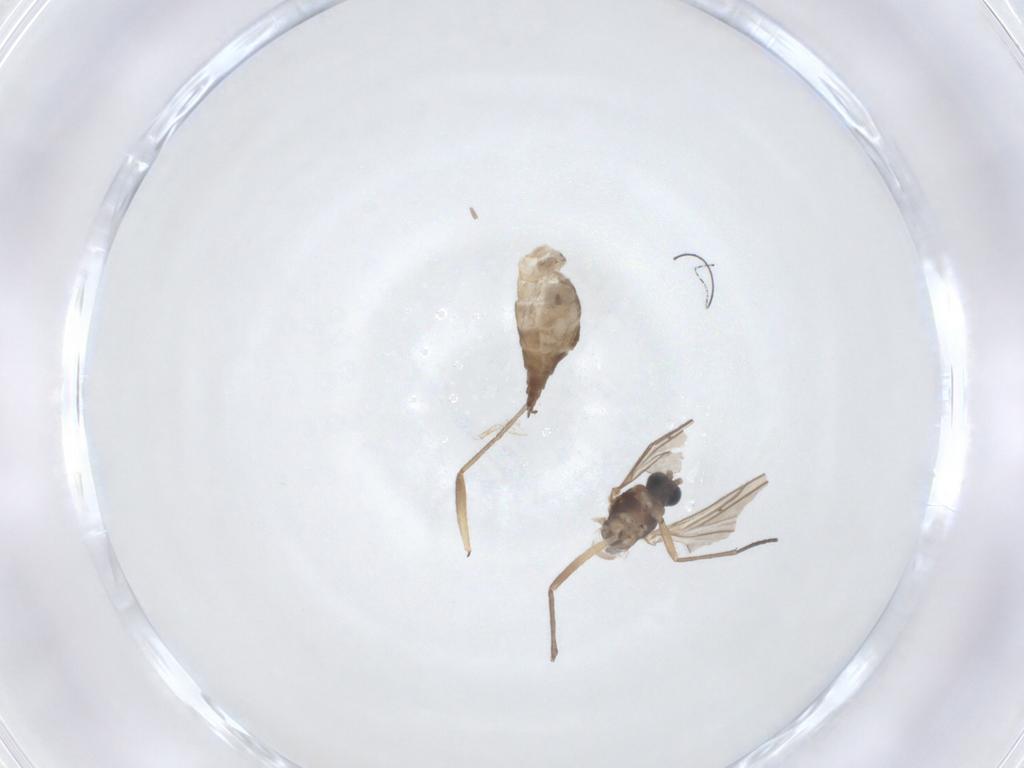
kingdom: Animalia
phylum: Arthropoda
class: Insecta
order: Diptera
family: Sciaridae
